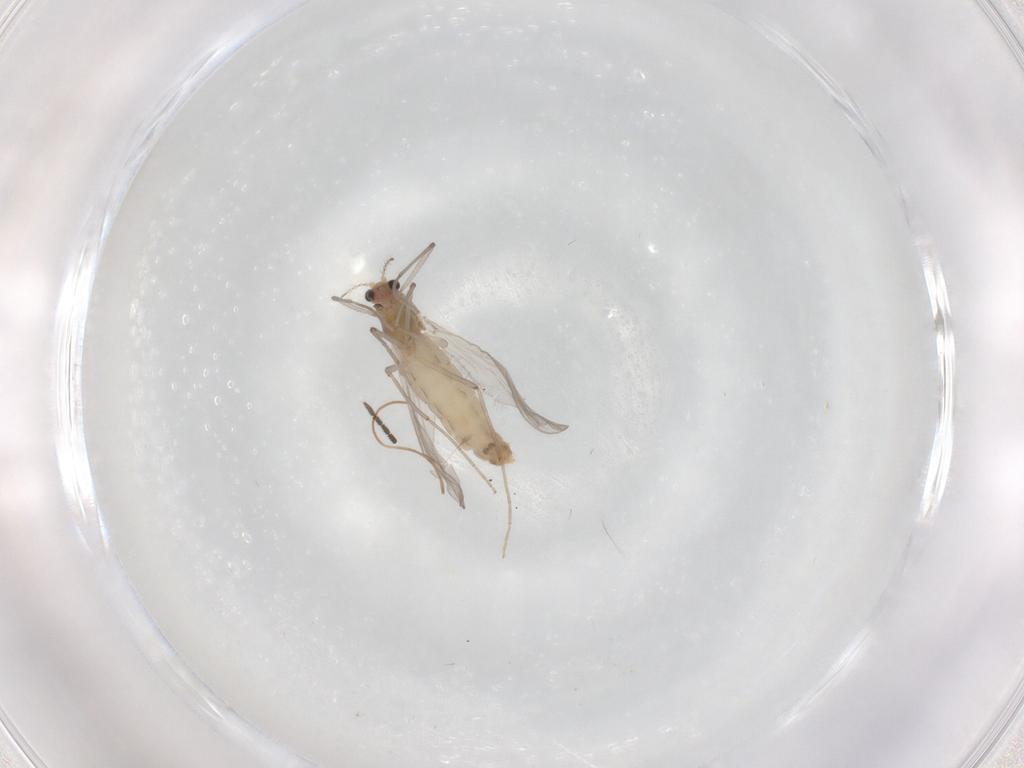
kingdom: Animalia
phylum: Arthropoda
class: Insecta
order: Diptera
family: Chironomidae
